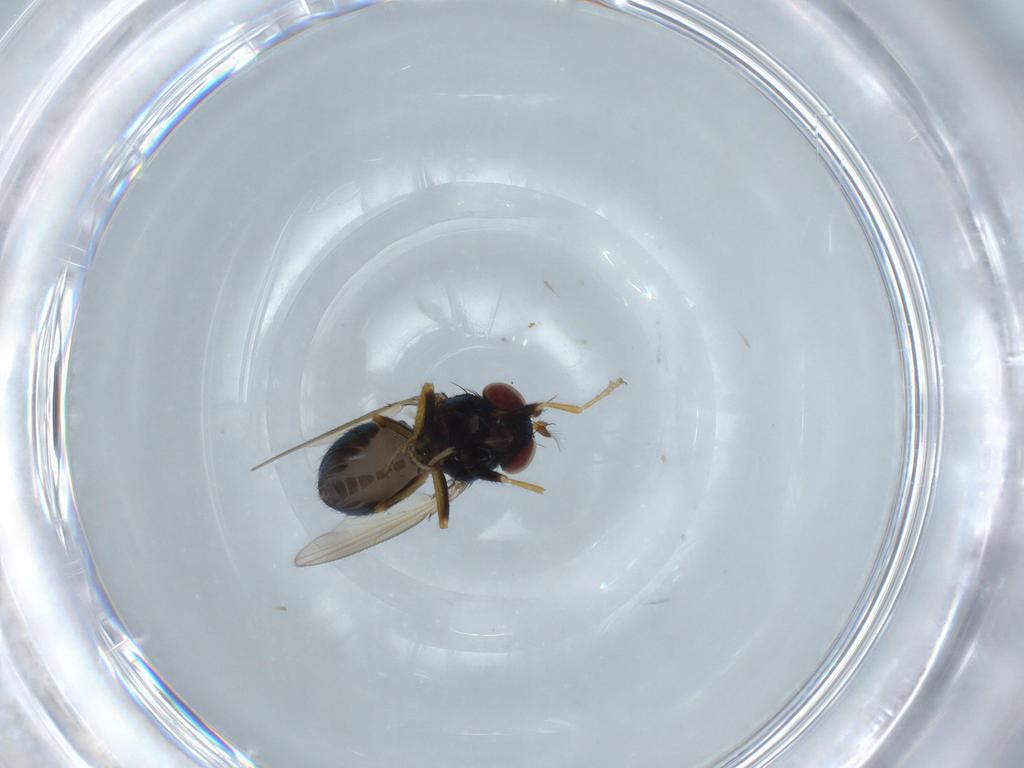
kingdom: Animalia
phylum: Arthropoda
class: Insecta
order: Diptera
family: Ephydridae
